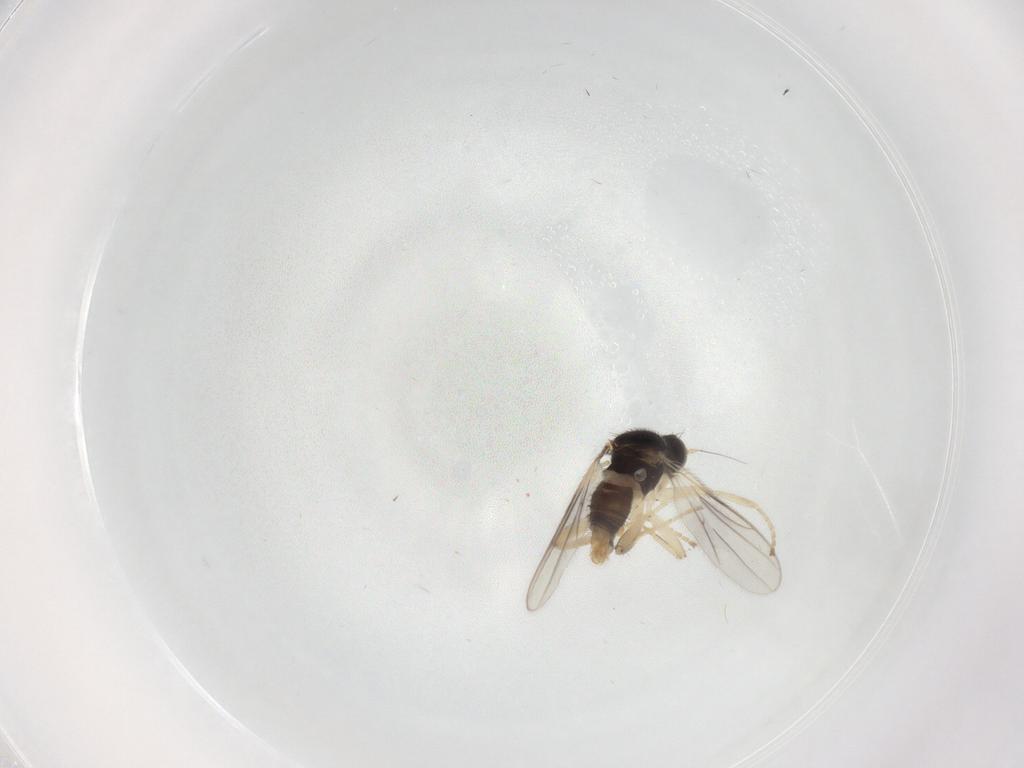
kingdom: Animalia
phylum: Arthropoda
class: Insecta
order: Diptera
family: Hybotidae
